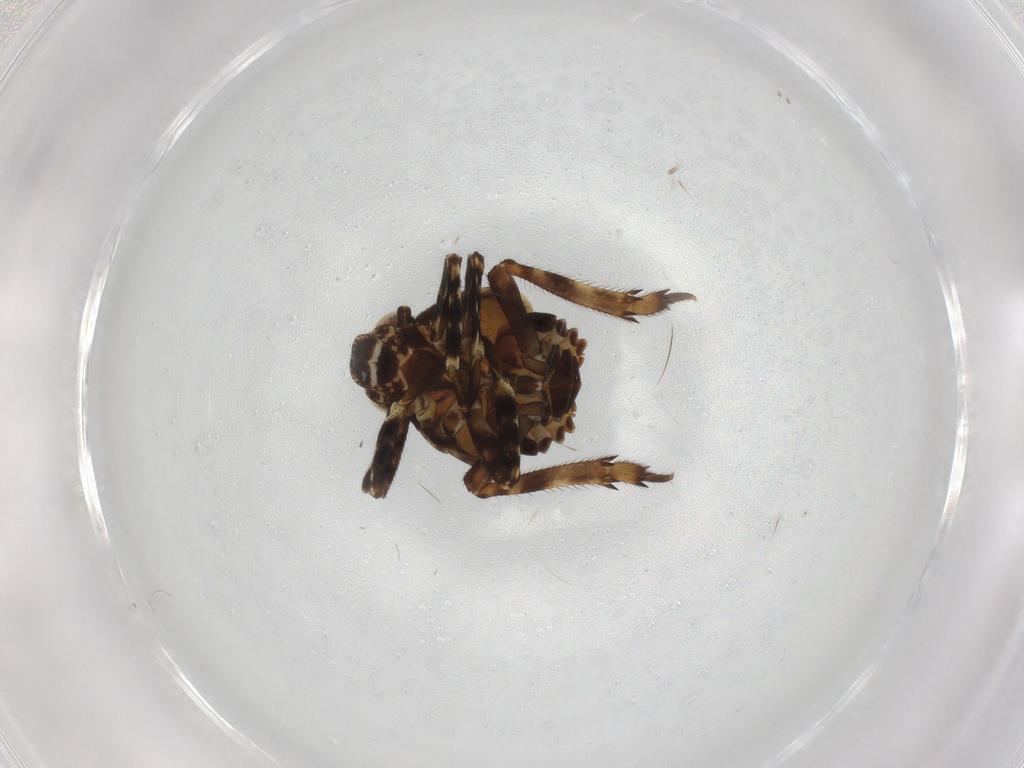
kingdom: Animalia
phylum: Arthropoda
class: Insecta
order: Hemiptera
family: Eurybrachidae
